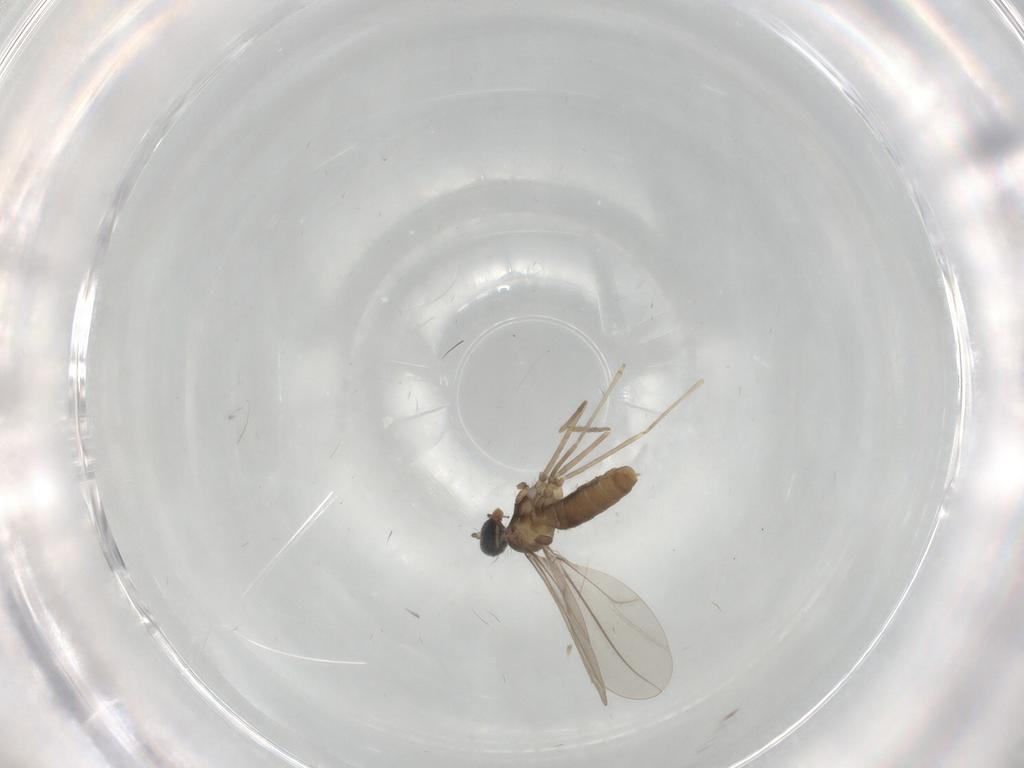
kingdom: Animalia
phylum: Arthropoda
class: Insecta
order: Diptera
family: Cecidomyiidae
